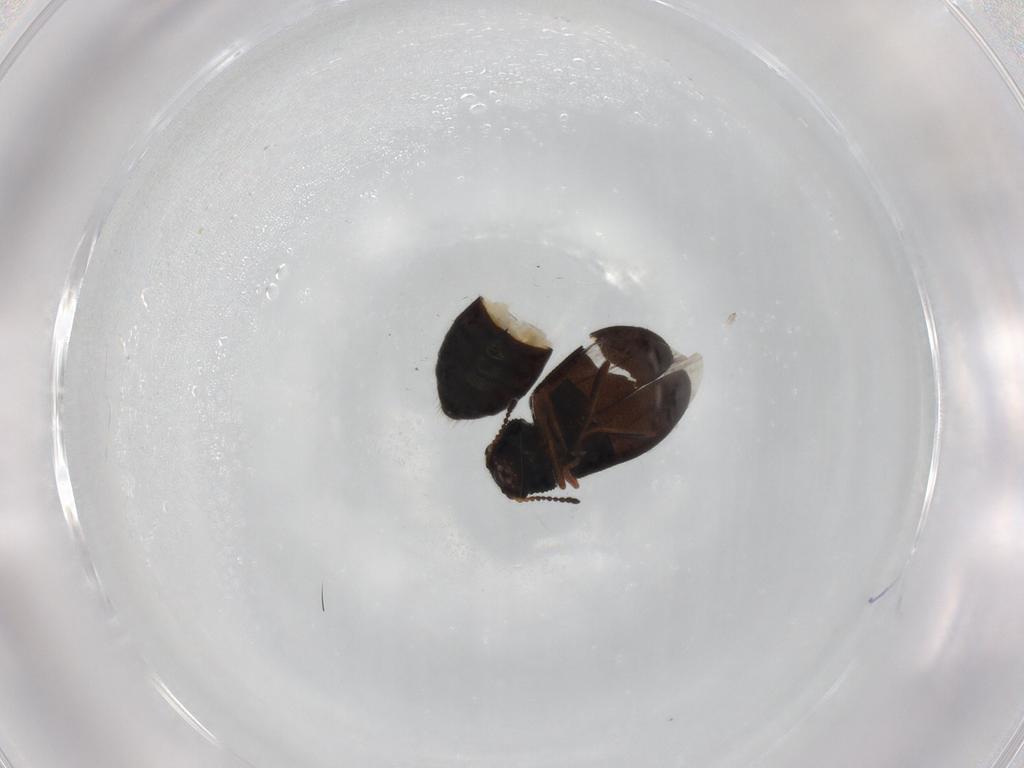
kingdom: Animalia
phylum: Arthropoda
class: Insecta
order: Coleoptera
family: Melyridae
